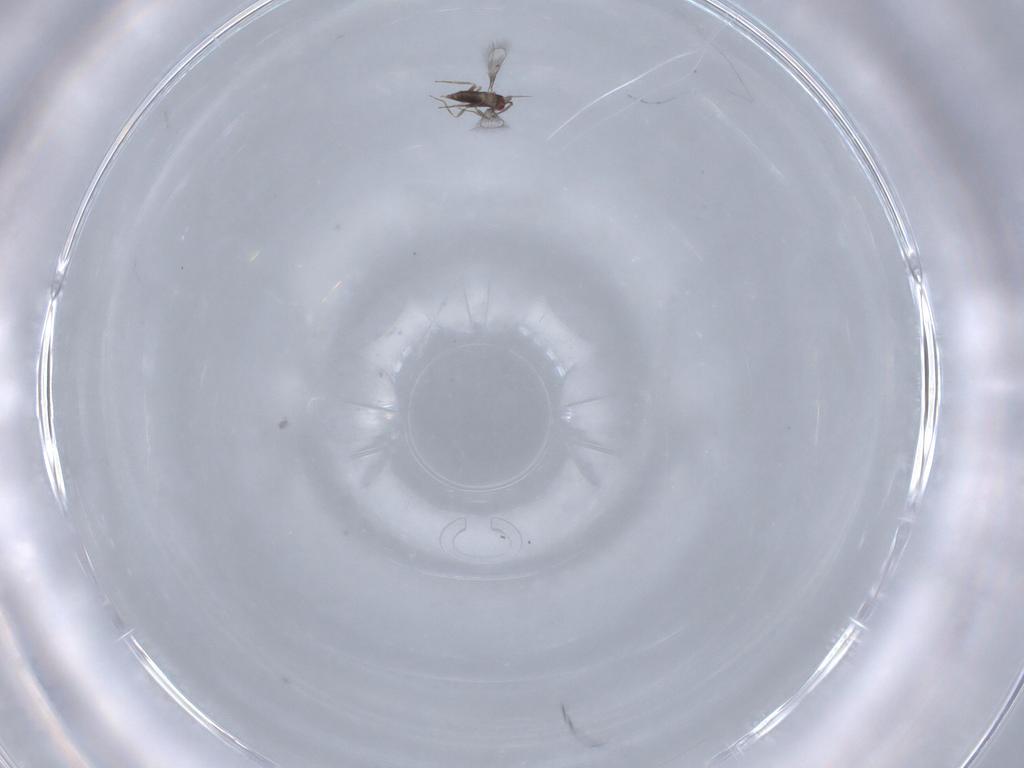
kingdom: Animalia
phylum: Arthropoda
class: Insecta
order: Hymenoptera
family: Trichogrammatidae
